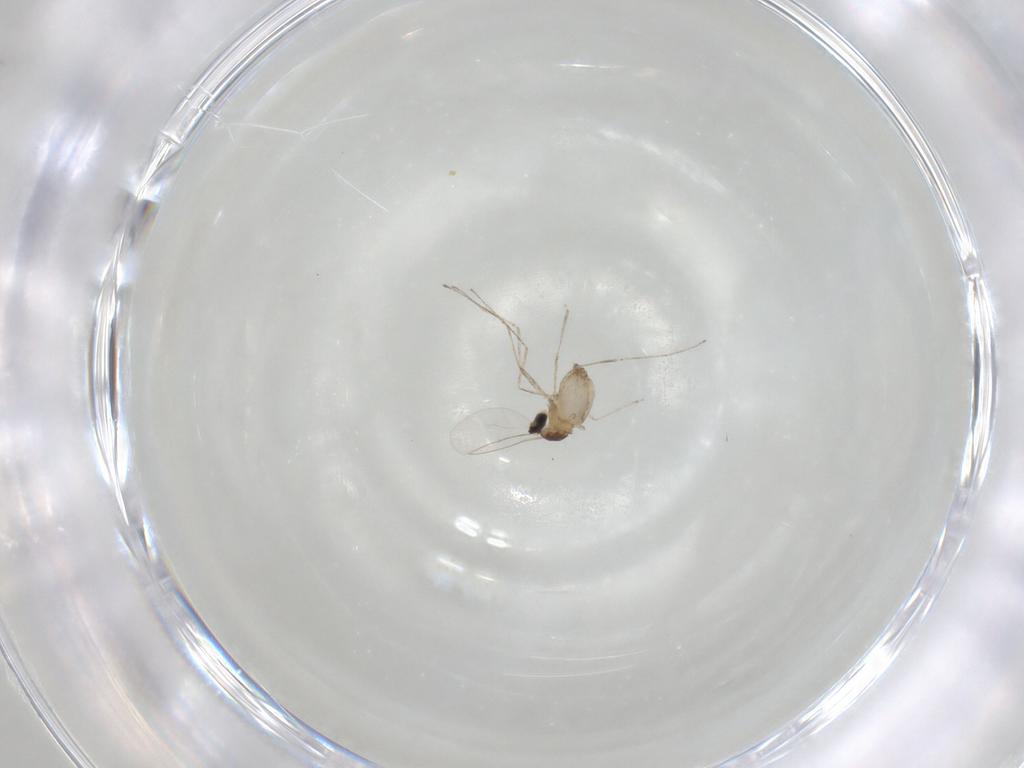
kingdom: Animalia
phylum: Arthropoda
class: Insecta
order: Diptera
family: Cecidomyiidae
